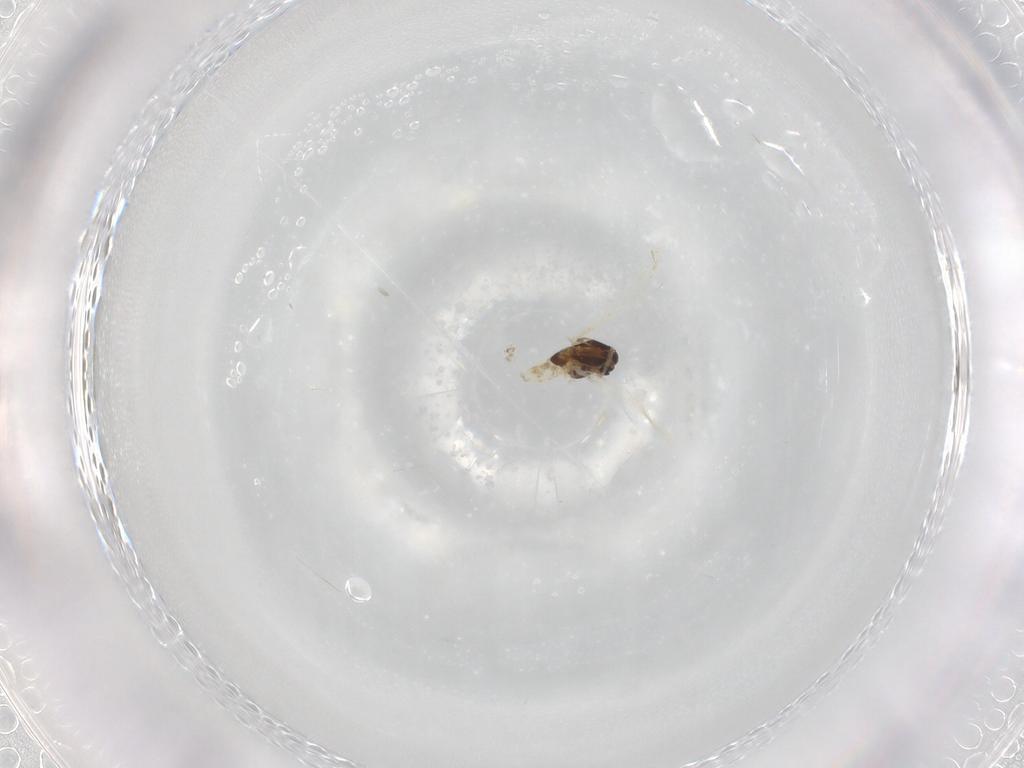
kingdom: Animalia
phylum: Arthropoda
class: Insecta
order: Diptera
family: Chironomidae
